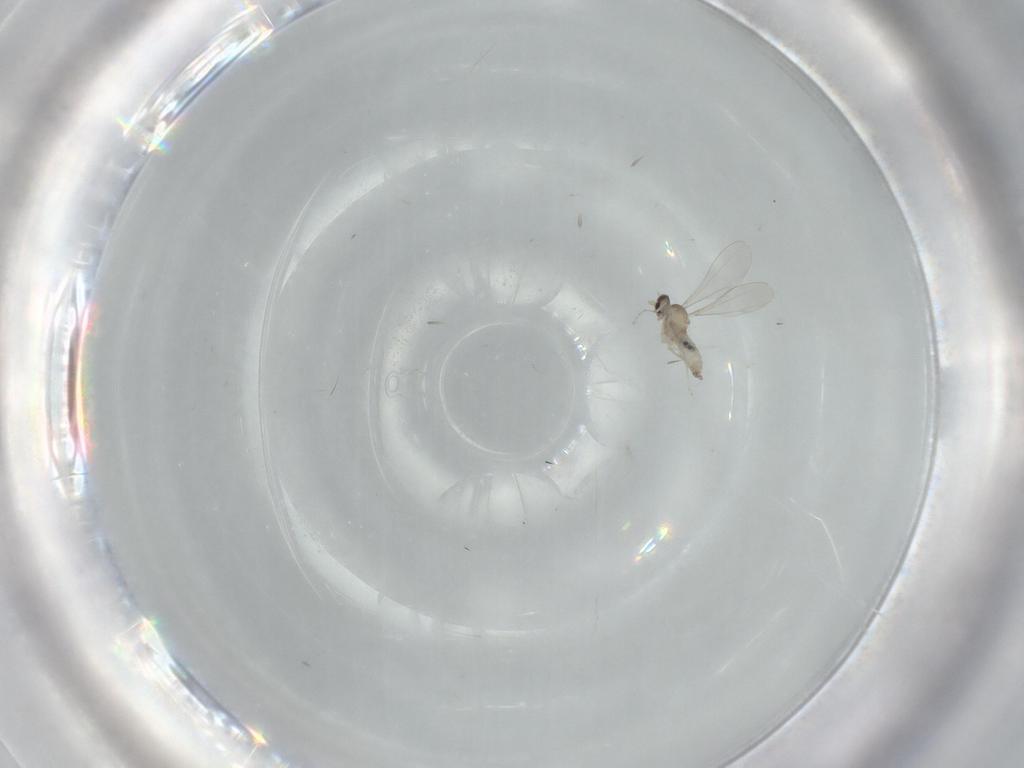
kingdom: Animalia
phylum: Arthropoda
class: Insecta
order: Diptera
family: Cecidomyiidae
